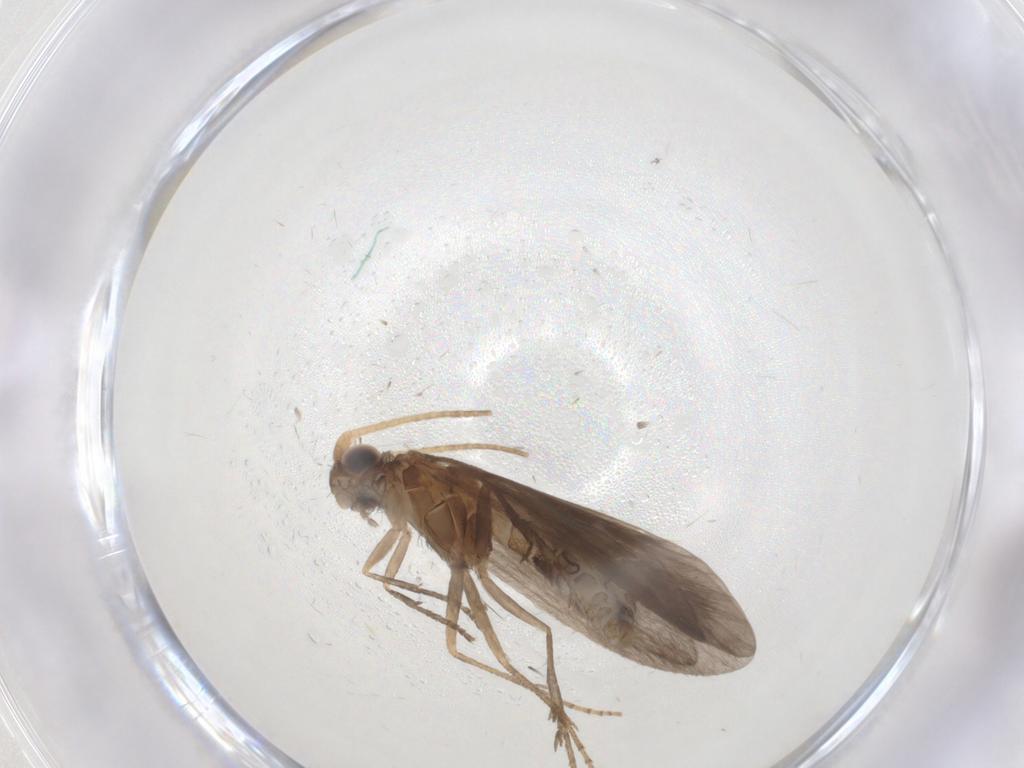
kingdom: Animalia
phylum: Arthropoda
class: Insecta
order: Trichoptera
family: Helicopsychidae
